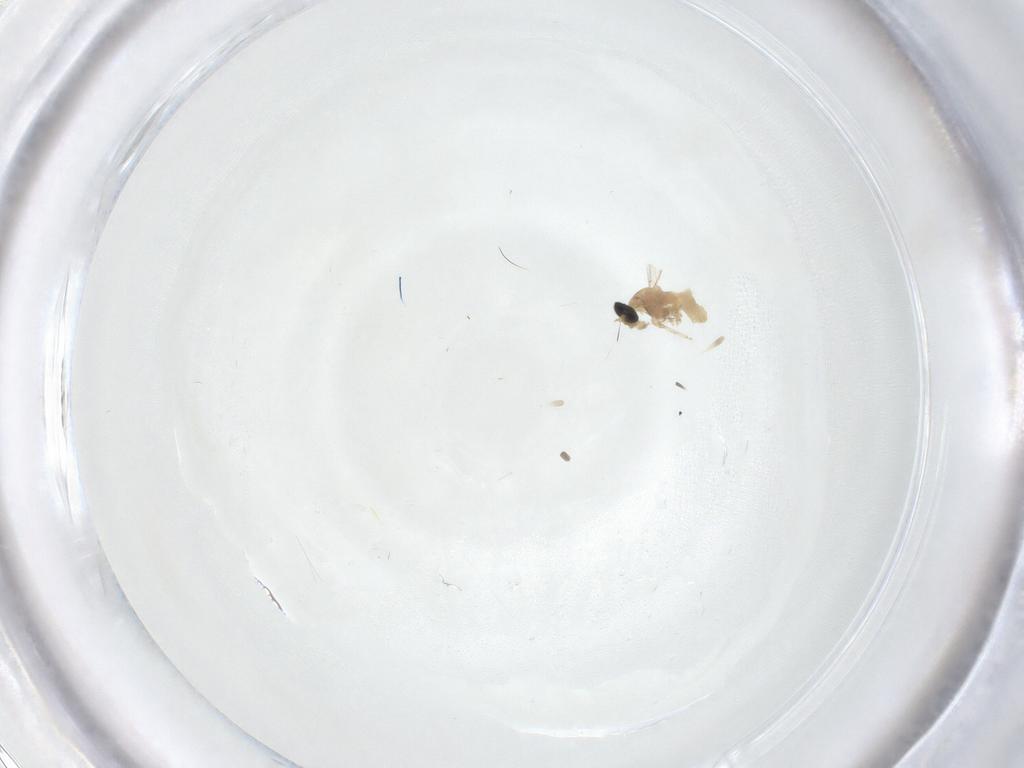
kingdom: Animalia
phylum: Arthropoda
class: Insecta
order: Diptera
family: Cecidomyiidae
